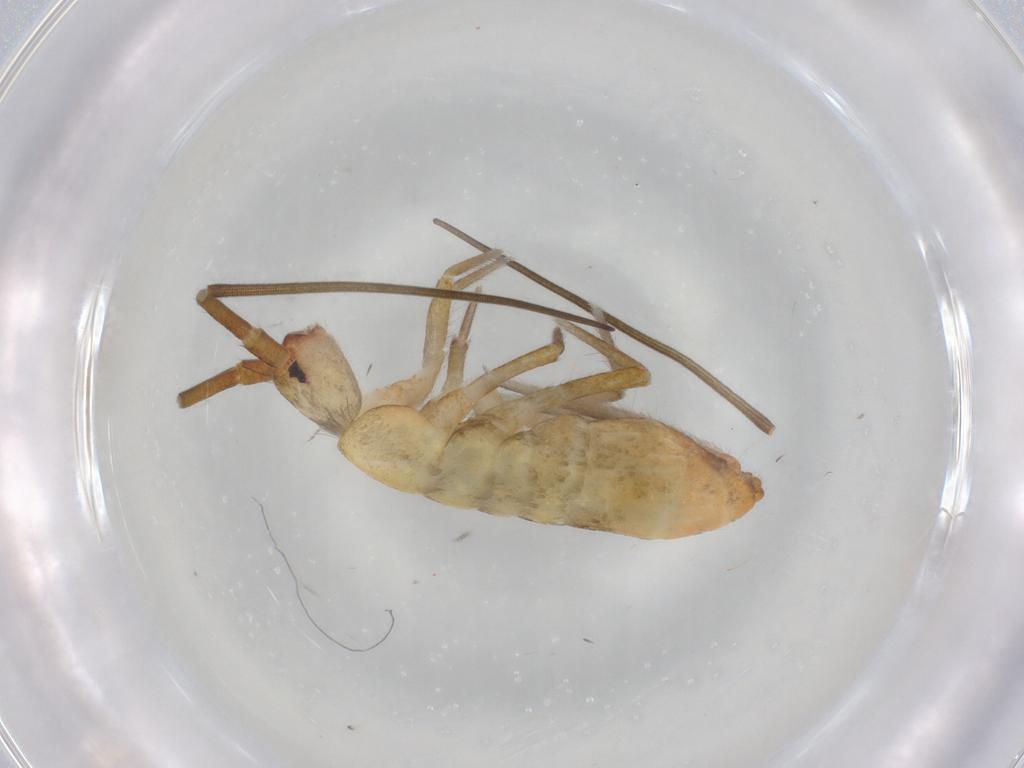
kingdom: Animalia
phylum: Arthropoda
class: Collembola
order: Entomobryomorpha
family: Tomoceridae
